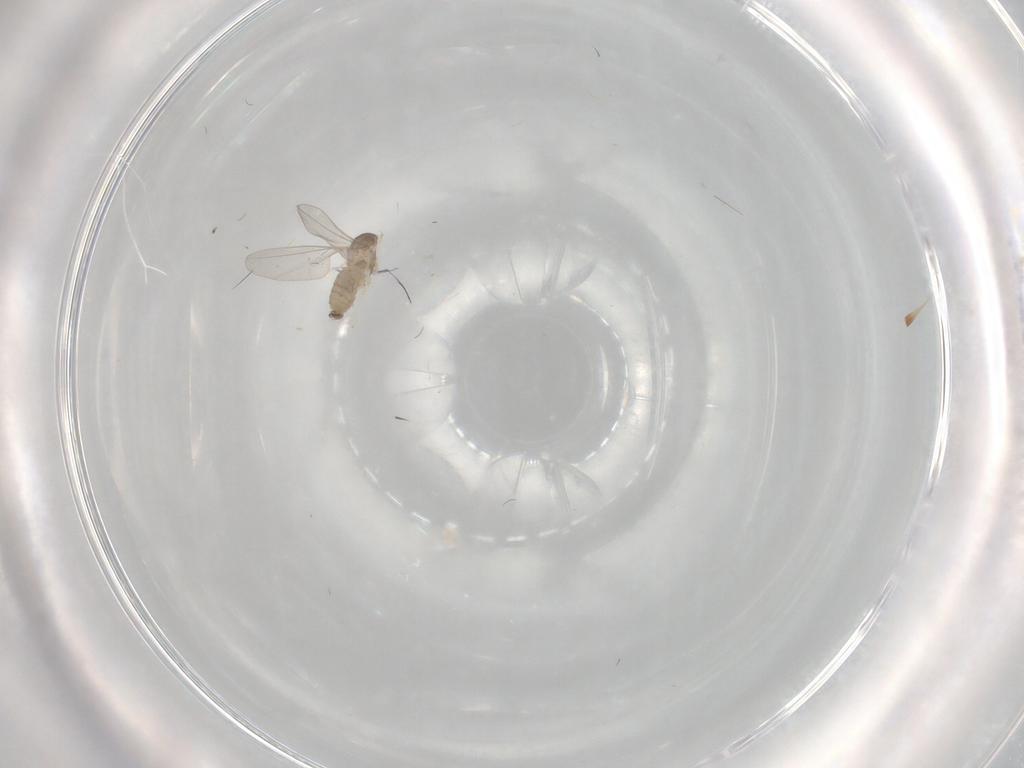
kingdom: Animalia
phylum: Arthropoda
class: Insecta
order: Diptera
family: Cecidomyiidae
